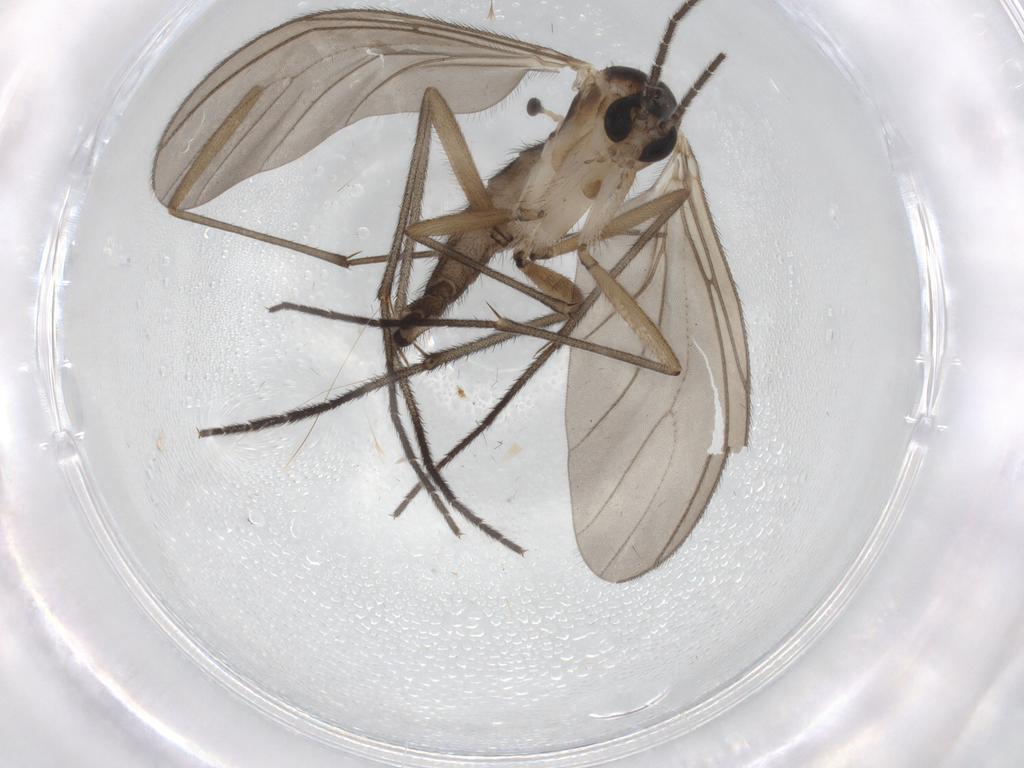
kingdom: Animalia
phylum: Arthropoda
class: Insecta
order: Diptera
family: Sciaridae
